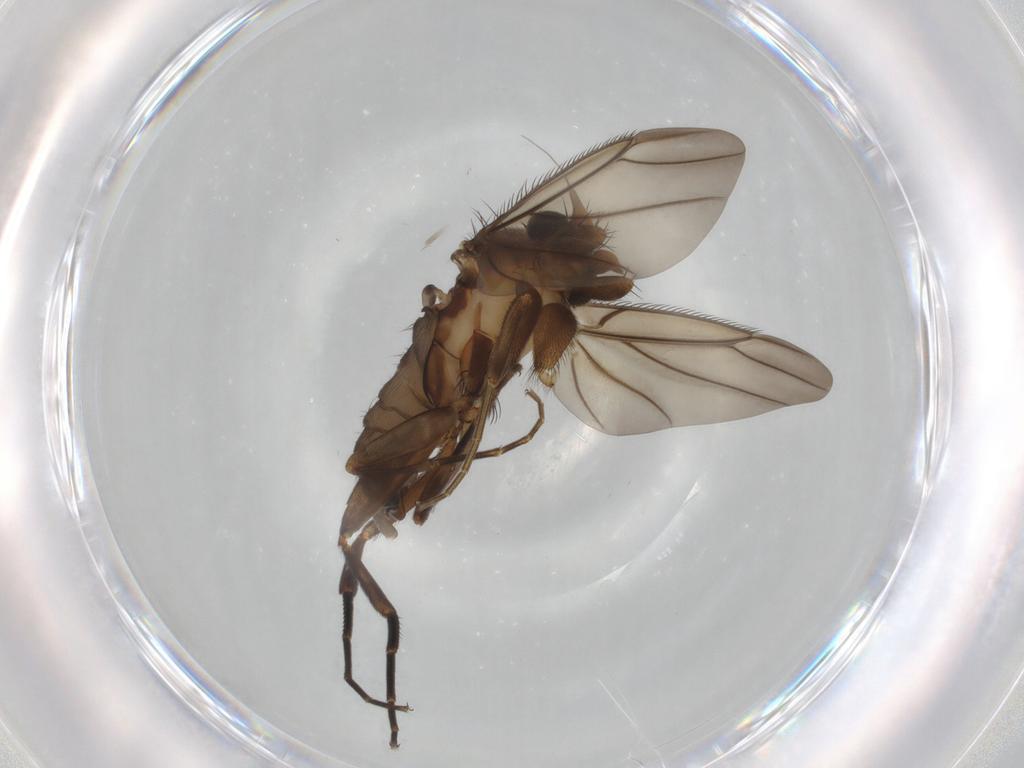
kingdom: Animalia
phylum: Arthropoda
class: Insecta
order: Diptera
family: Phoridae
